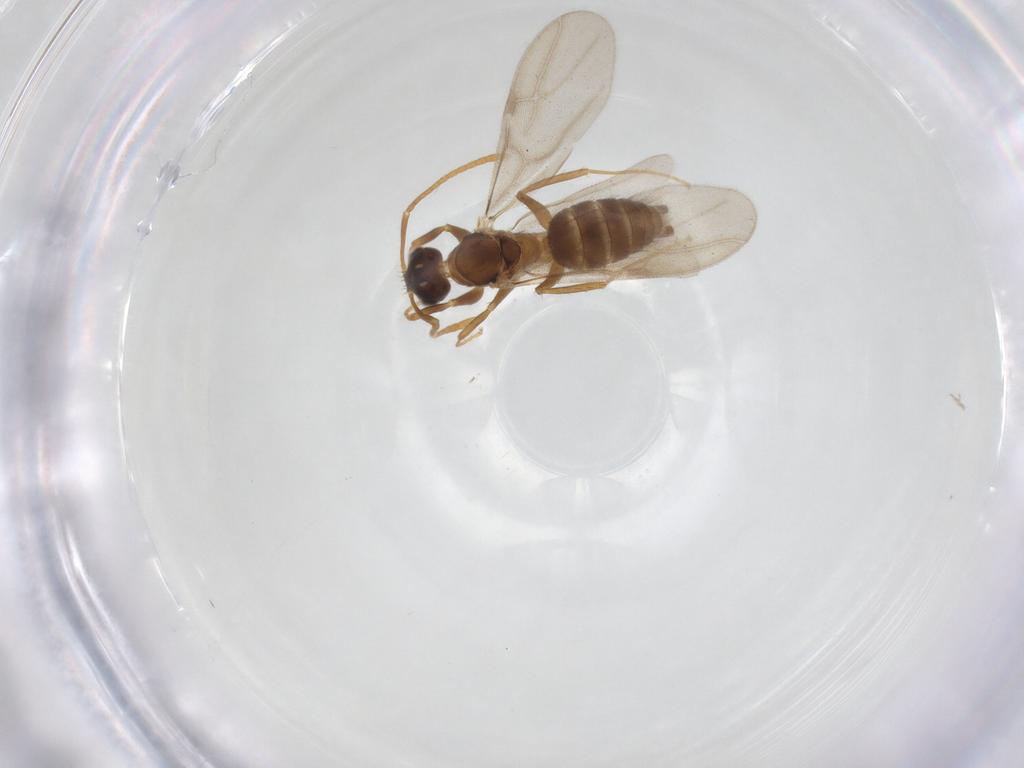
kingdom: Animalia
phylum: Arthropoda
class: Insecta
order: Hymenoptera
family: Formicidae
